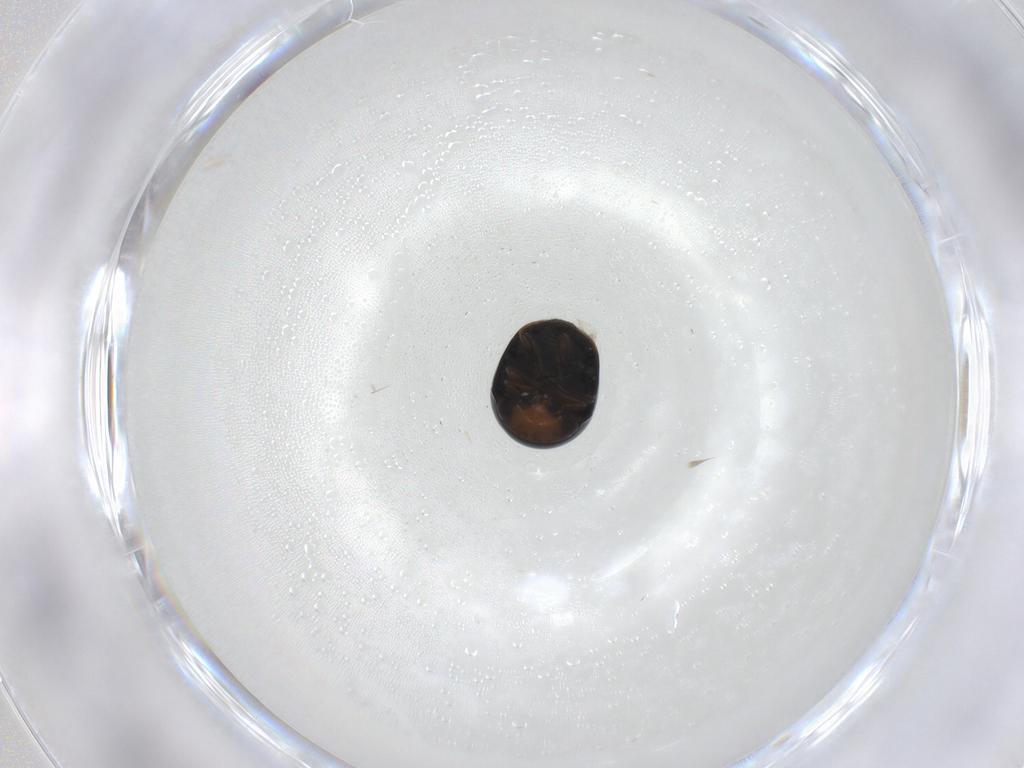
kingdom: Animalia
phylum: Arthropoda
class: Insecta
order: Coleoptera
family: Cybocephalidae
